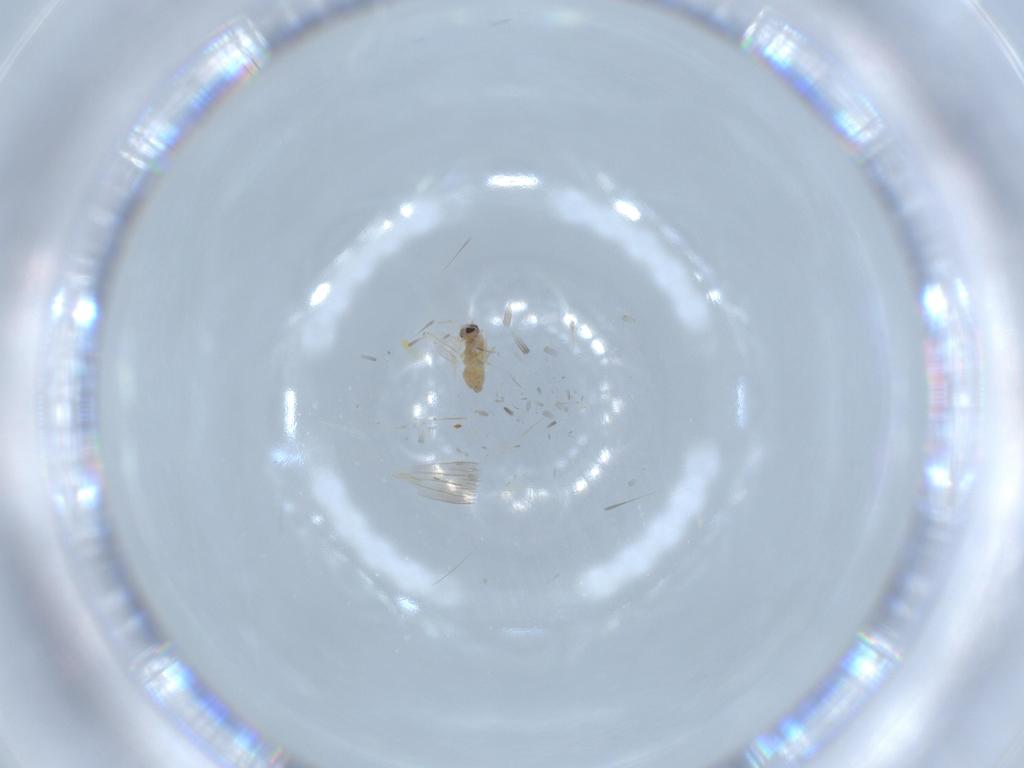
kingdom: Animalia
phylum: Arthropoda
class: Insecta
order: Diptera
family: Cecidomyiidae
